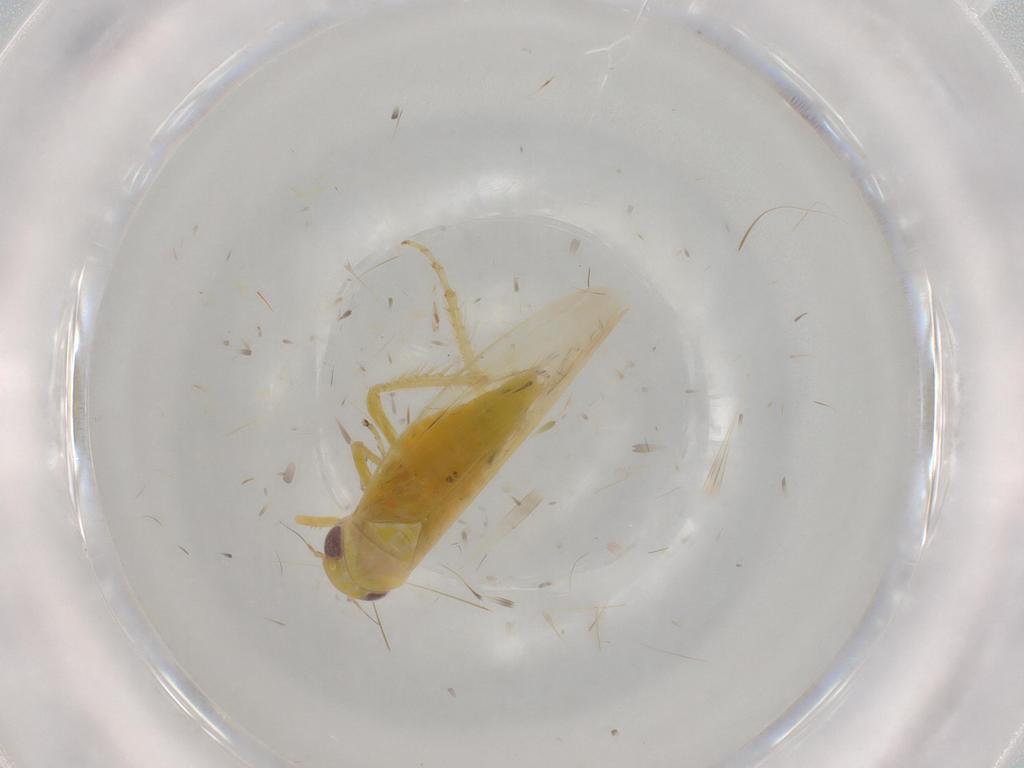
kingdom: Animalia
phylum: Arthropoda
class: Insecta
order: Hemiptera
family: Cicadellidae
